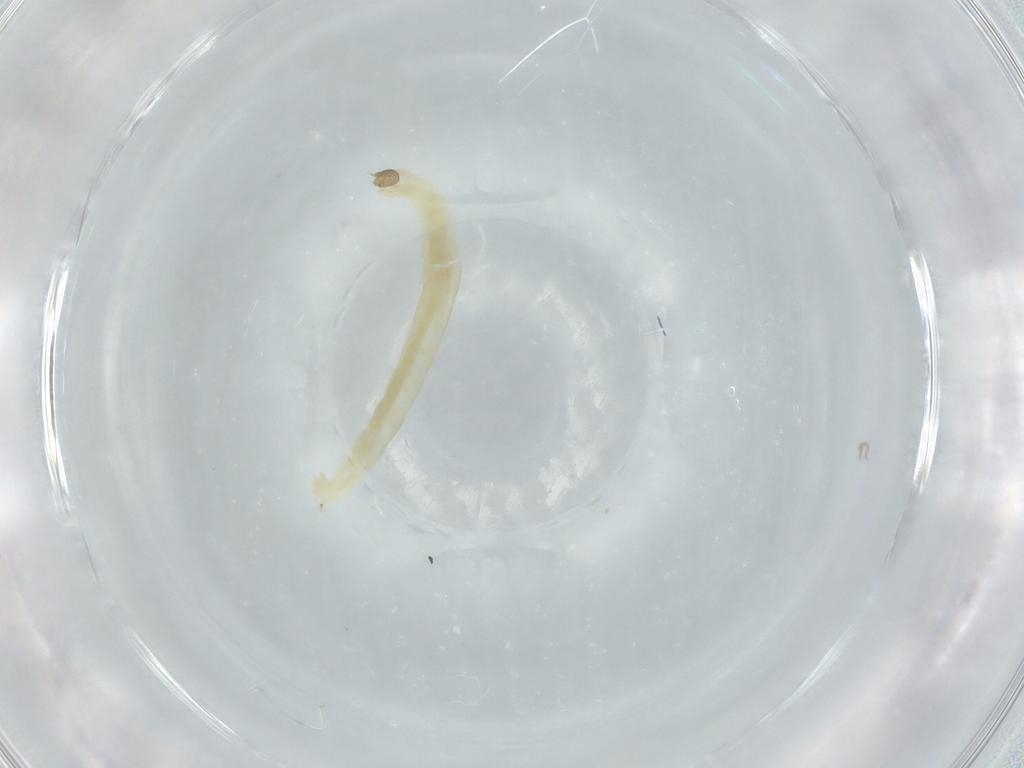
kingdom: Animalia
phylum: Arthropoda
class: Insecta
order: Diptera
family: Chironomidae
